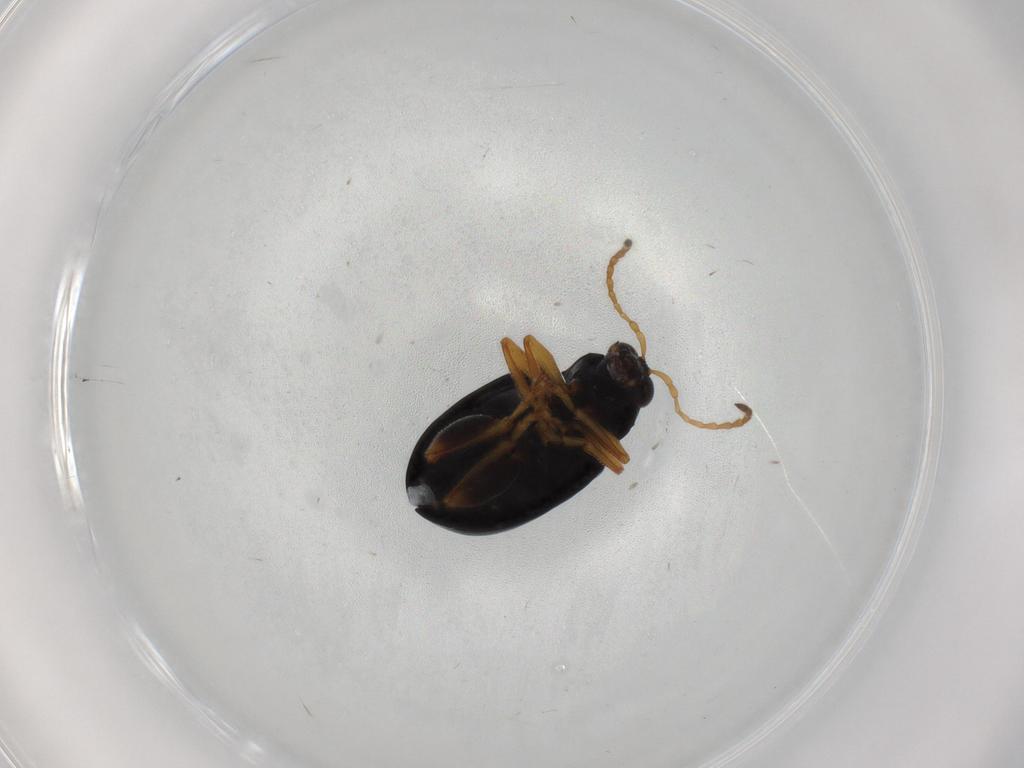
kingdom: Animalia
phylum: Arthropoda
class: Insecta
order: Coleoptera
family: Chrysomelidae
